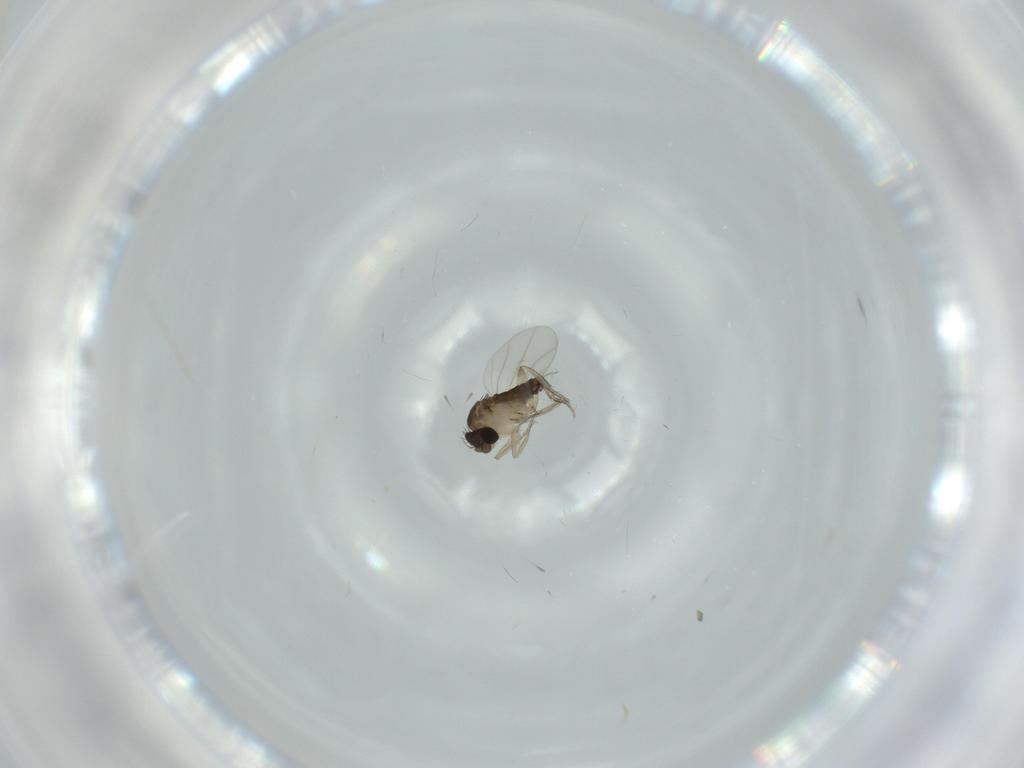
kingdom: Animalia
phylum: Arthropoda
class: Insecta
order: Diptera
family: Phoridae
